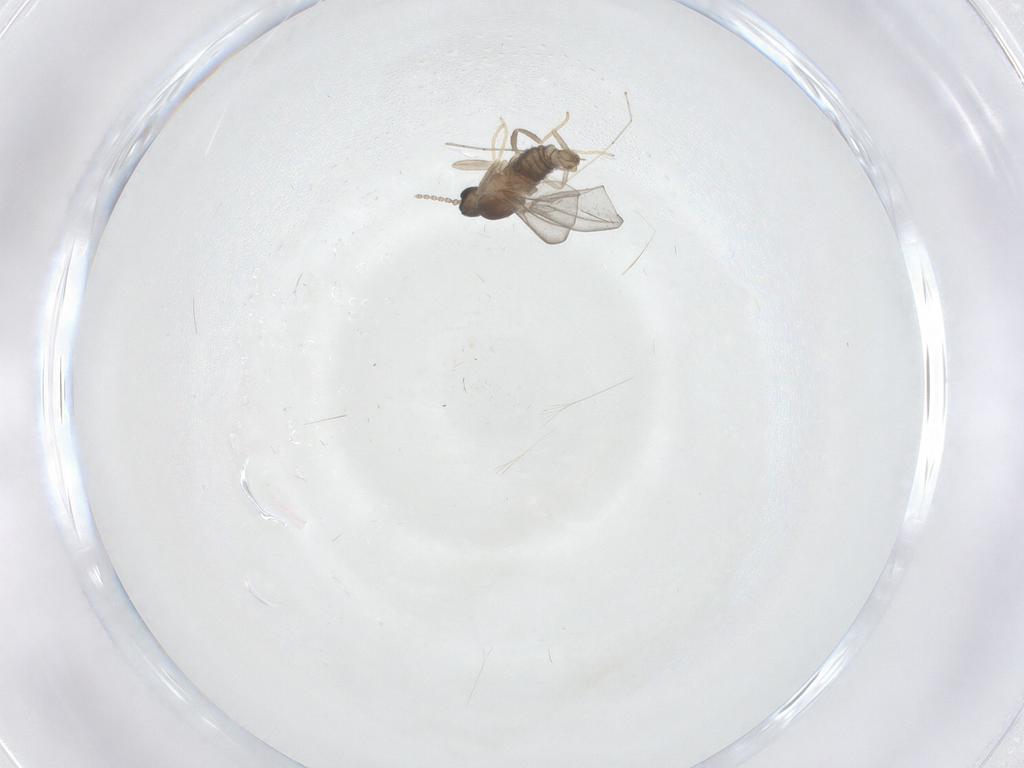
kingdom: Animalia
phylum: Arthropoda
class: Insecta
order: Diptera
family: Cecidomyiidae
